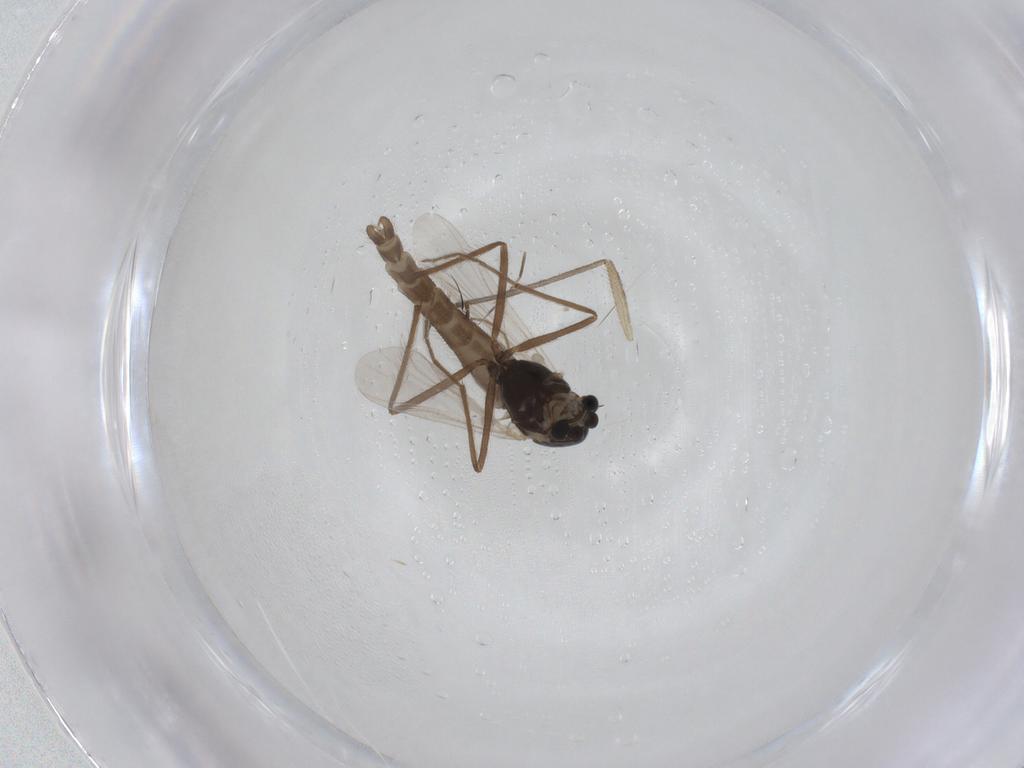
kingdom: Animalia
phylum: Arthropoda
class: Insecta
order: Diptera
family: Chironomidae
